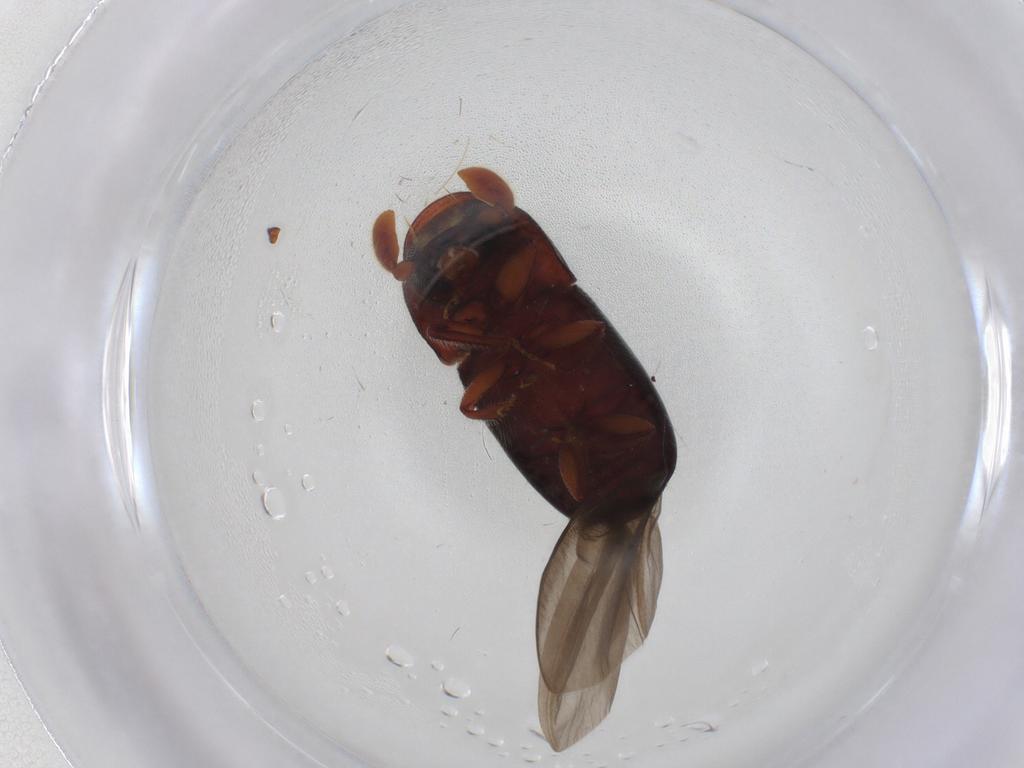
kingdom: Animalia
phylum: Arthropoda
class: Insecta
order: Coleoptera
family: Curculionidae
